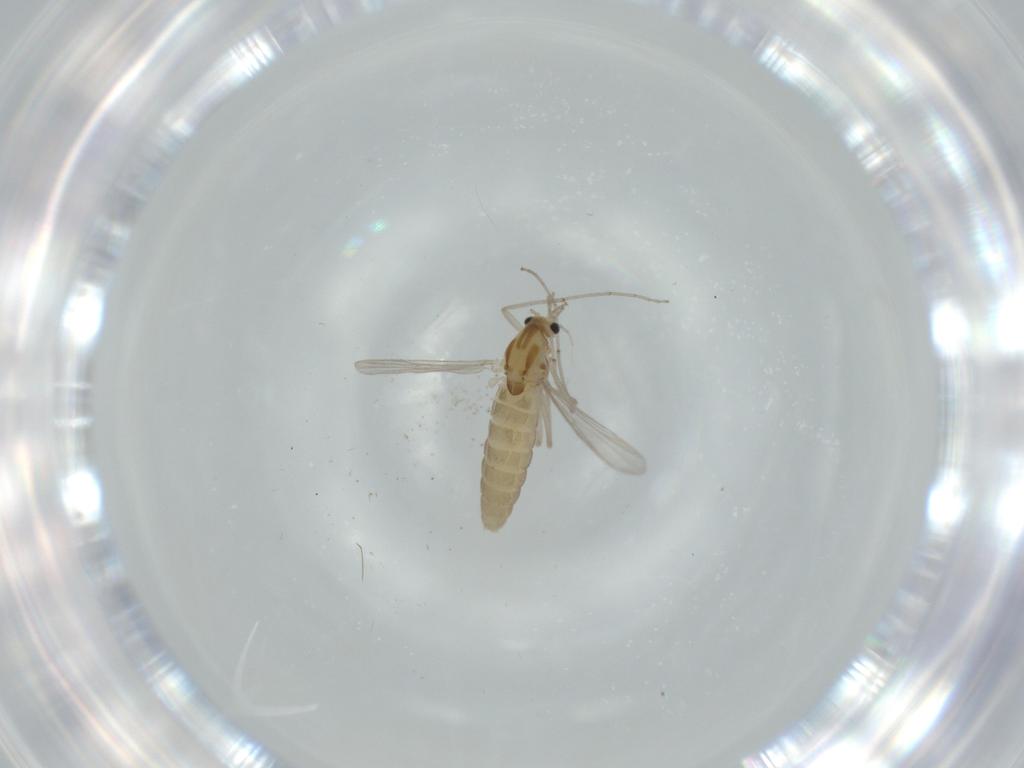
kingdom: Animalia
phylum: Arthropoda
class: Insecta
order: Diptera
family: Chironomidae
